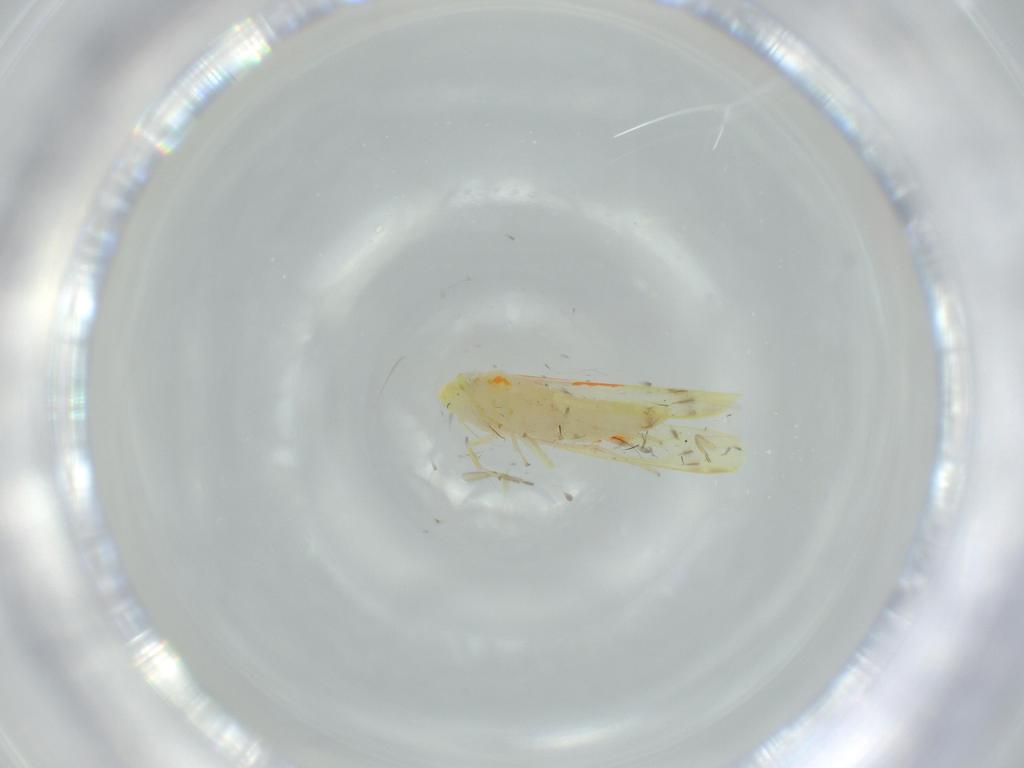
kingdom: Animalia
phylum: Arthropoda
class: Insecta
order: Hemiptera
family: Cicadellidae
